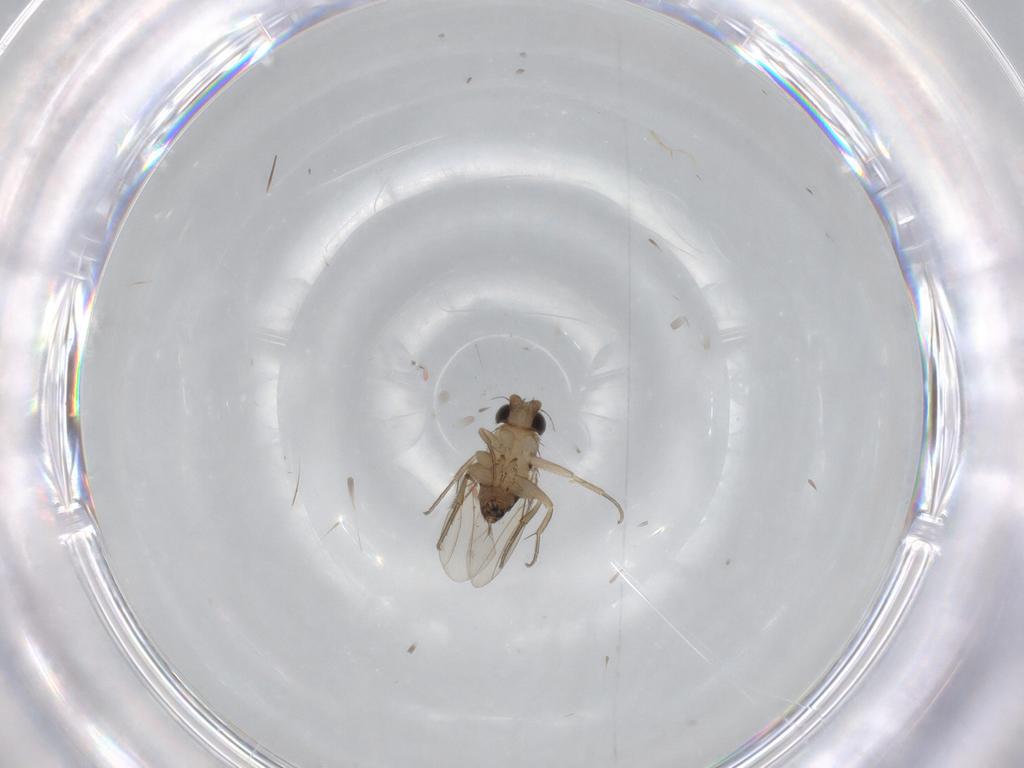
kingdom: Animalia
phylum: Arthropoda
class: Insecta
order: Diptera
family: Phoridae
